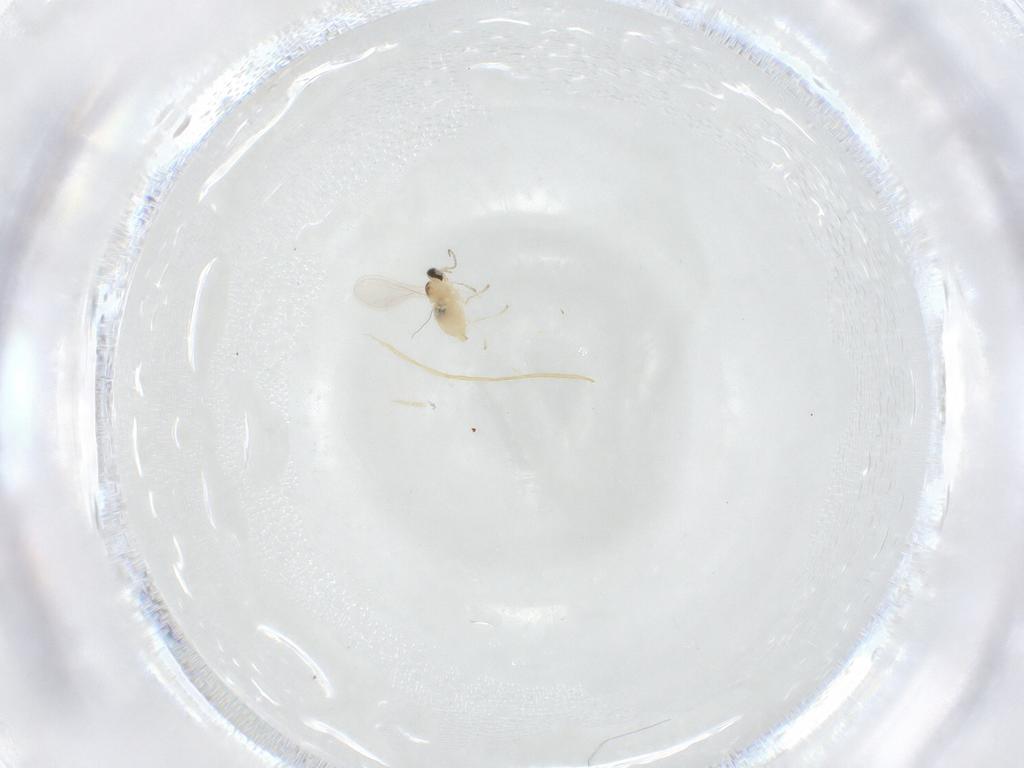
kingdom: Animalia
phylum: Arthropoda
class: Insecta
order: Diptera
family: Cecidomyiidae
